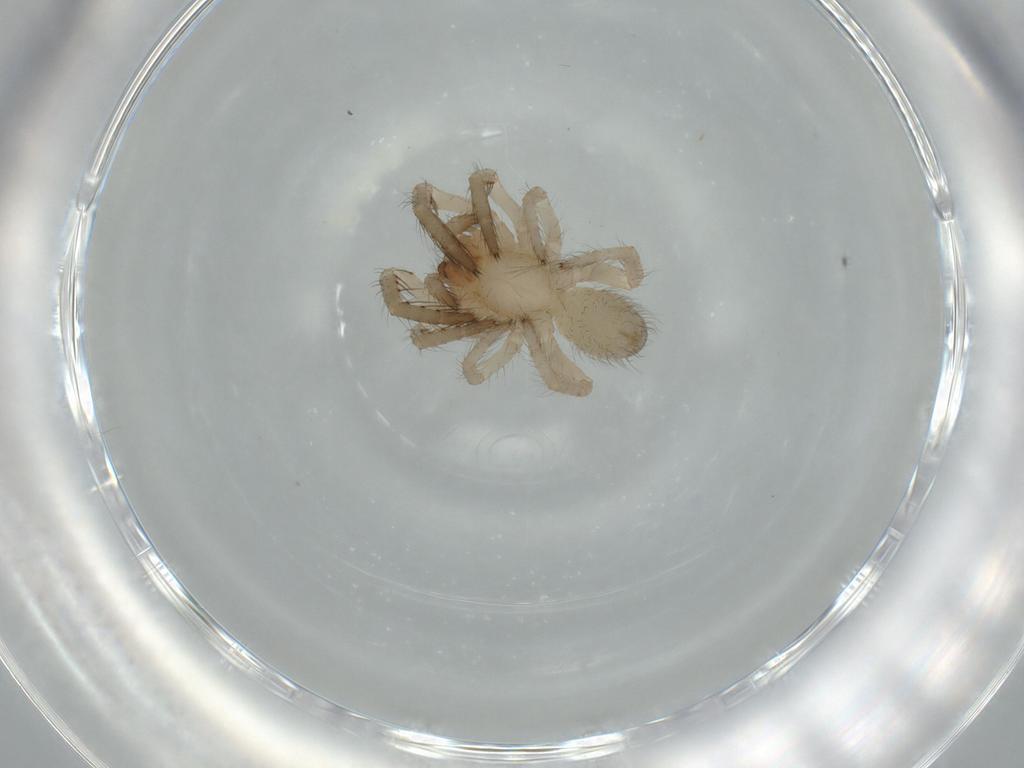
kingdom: Animalia
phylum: Arthropoda
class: Arachnida
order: Araneae
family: Segestriidae
